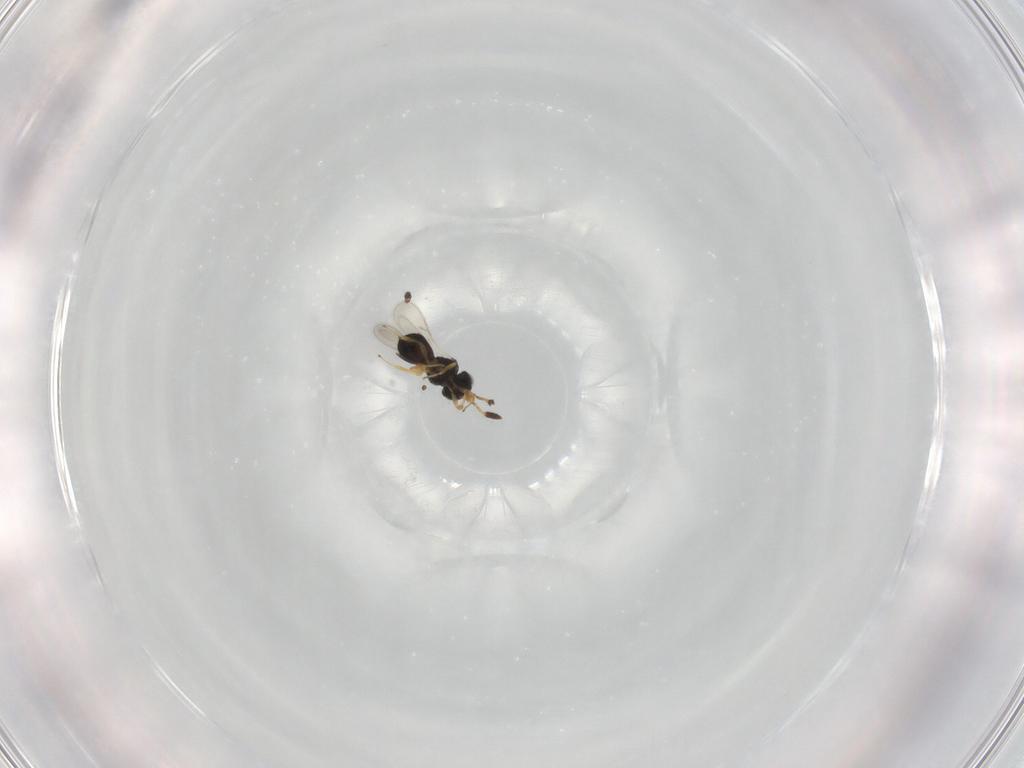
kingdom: Animalia
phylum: Arthropoda
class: Insecta
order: Hymenoptera
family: Scelionidae
